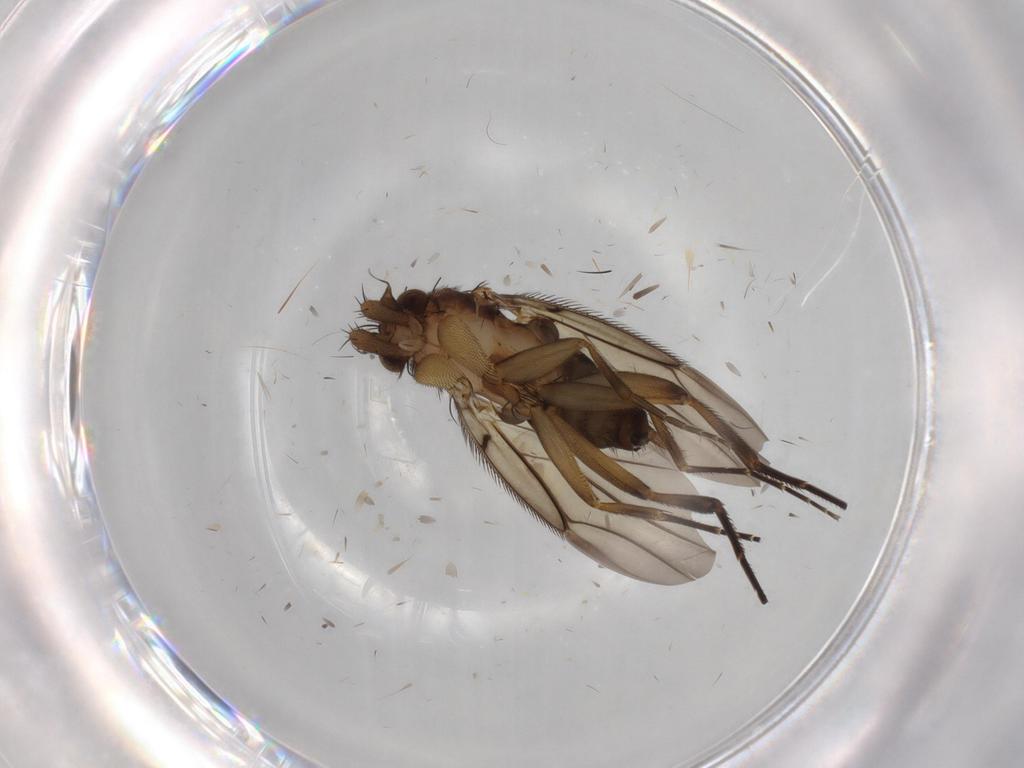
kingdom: Animalia
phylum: Arthropoda
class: Insecta
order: Diptera
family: Phoridae
